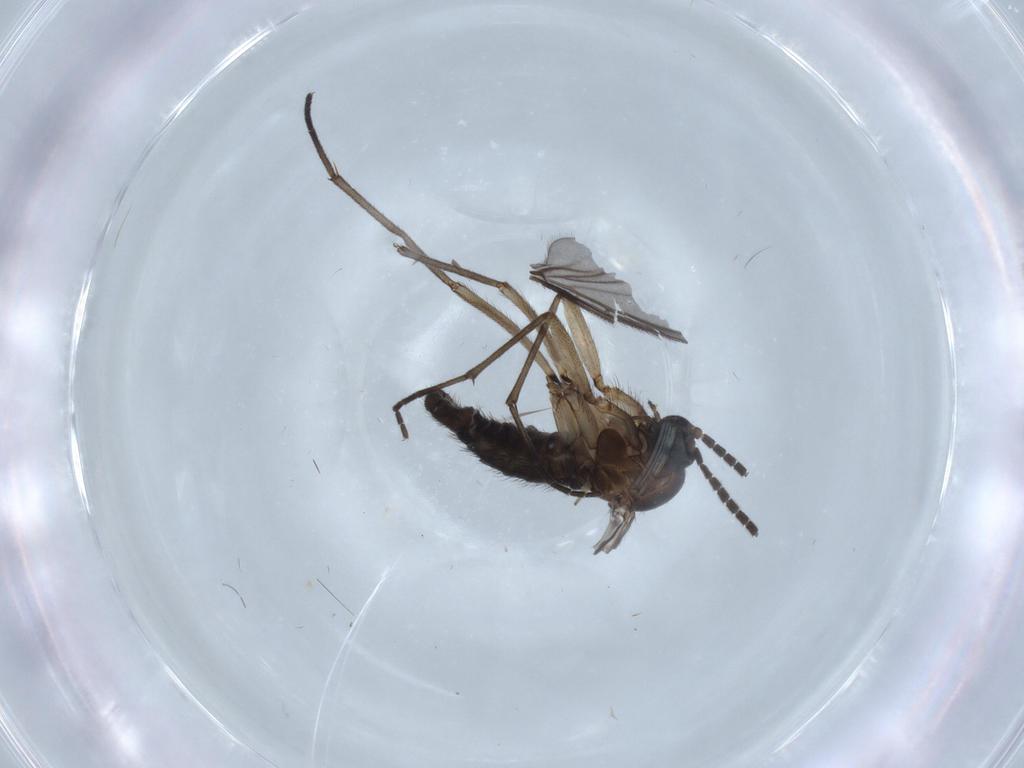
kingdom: Animalia
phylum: Arthropoda
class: Insecta
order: Diptera
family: Sciaridae
